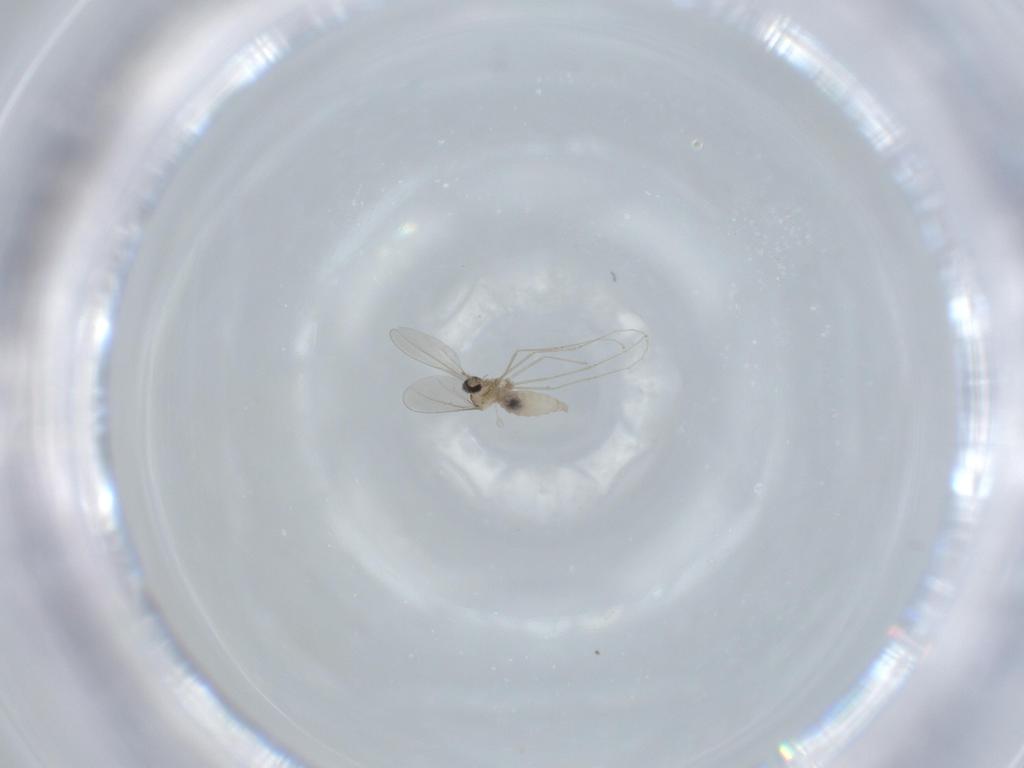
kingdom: Animalia
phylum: Arthropoda
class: Insecta
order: Diptera
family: Cecidomyiidae
